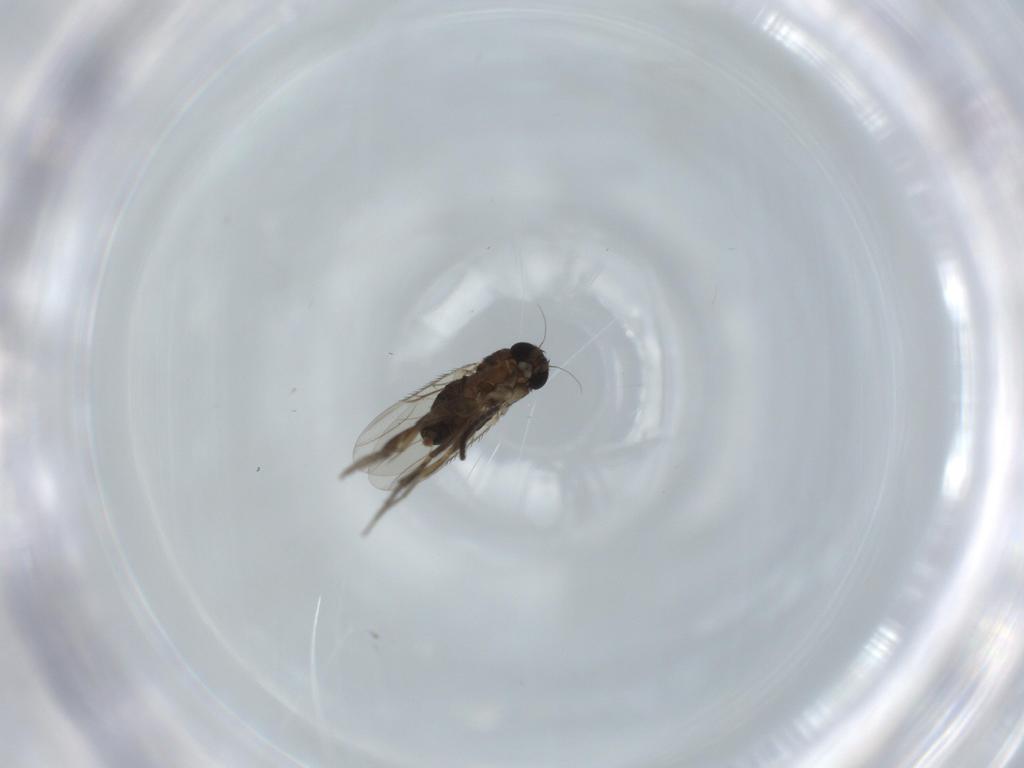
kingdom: Animalia
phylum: Arthropoda
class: Insecta
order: Diptera
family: Phoridae
